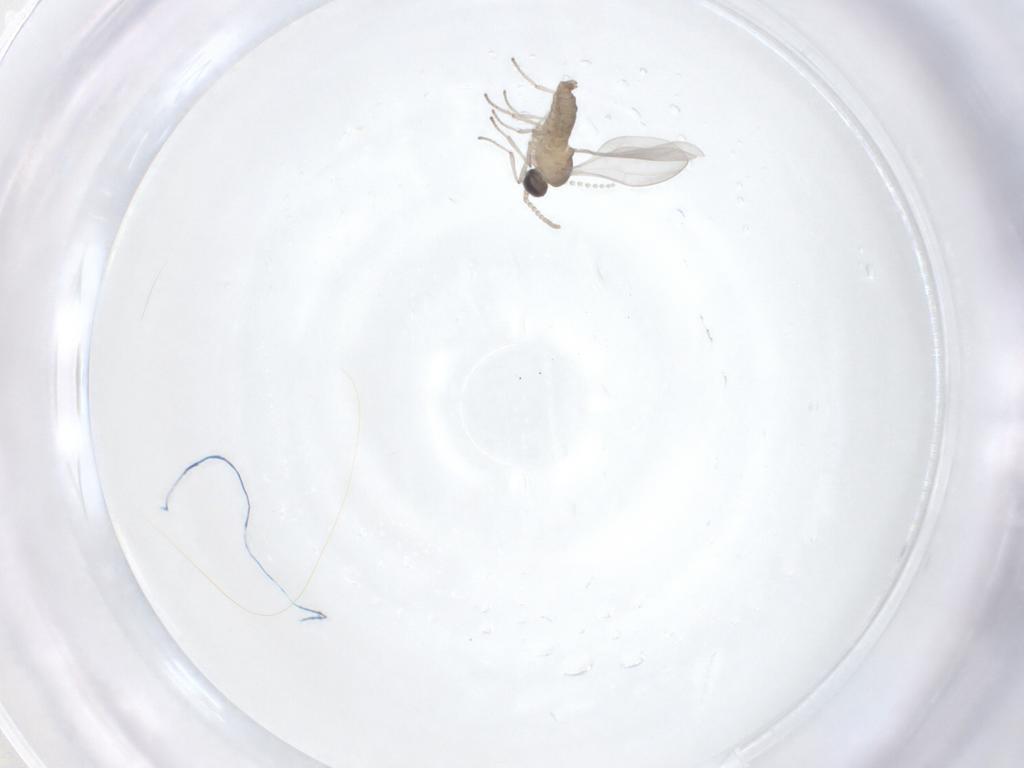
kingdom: Animalia
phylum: Arthropoda
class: Insecta
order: Diptera
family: Cecidomyiidae
